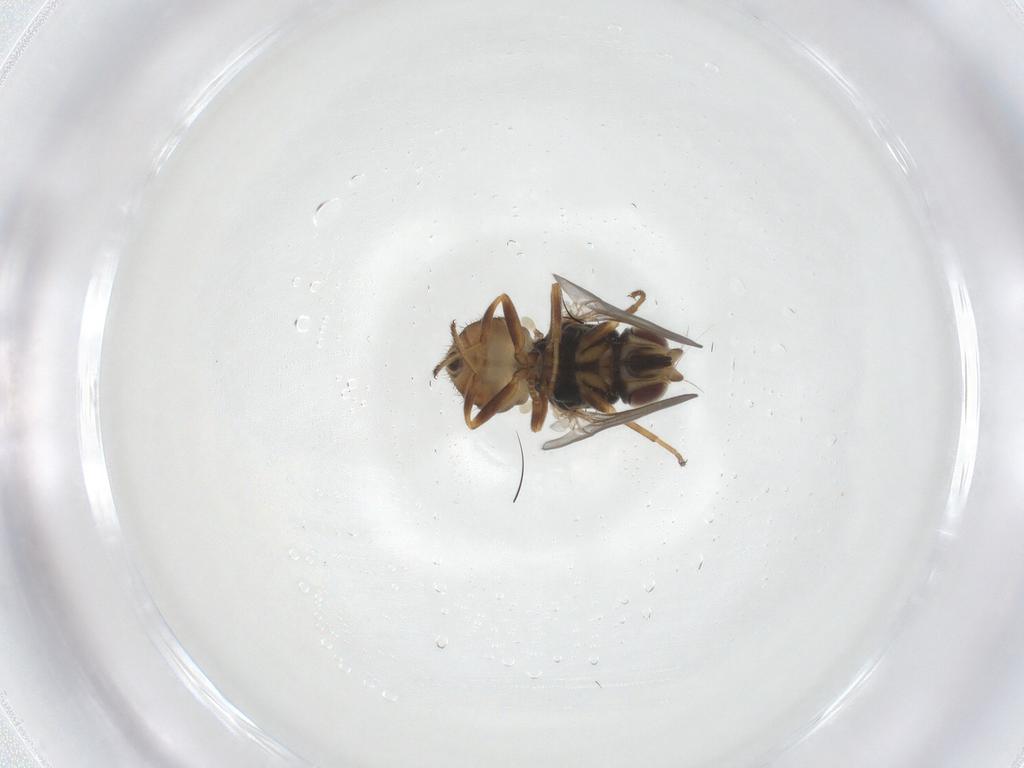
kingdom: Animalia
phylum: Arthropoda
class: Insecta
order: Diptera
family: Chloropidae
